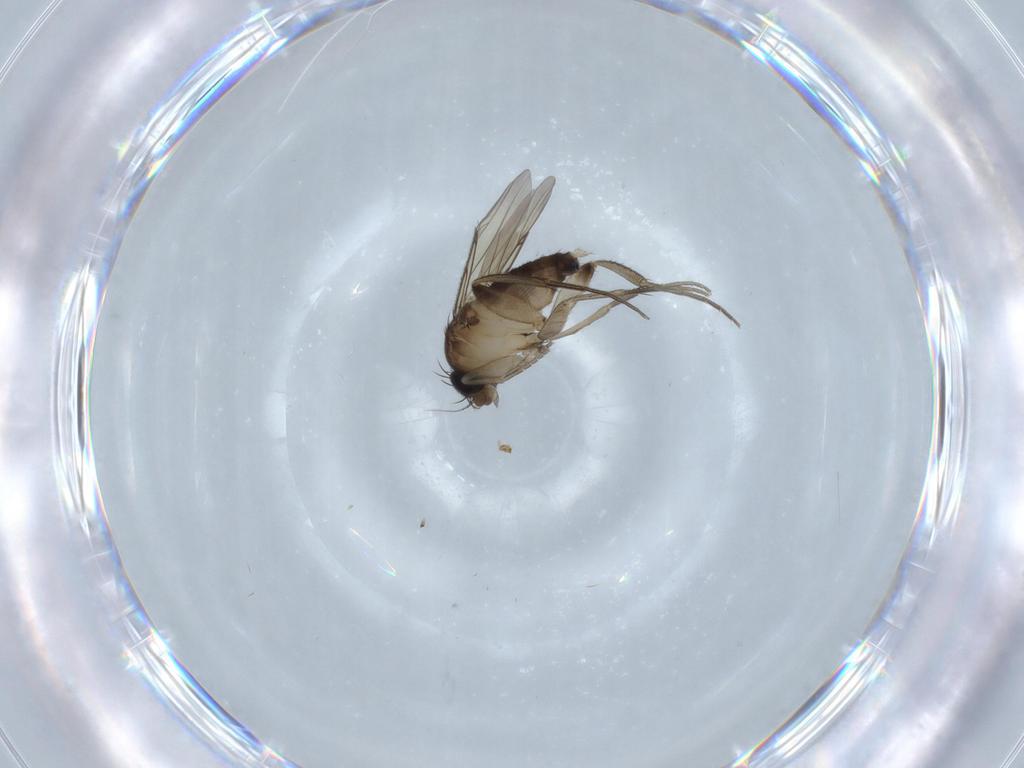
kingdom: Animalia
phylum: Arthropoda
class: Insecta
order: Diptera
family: Phoridae
